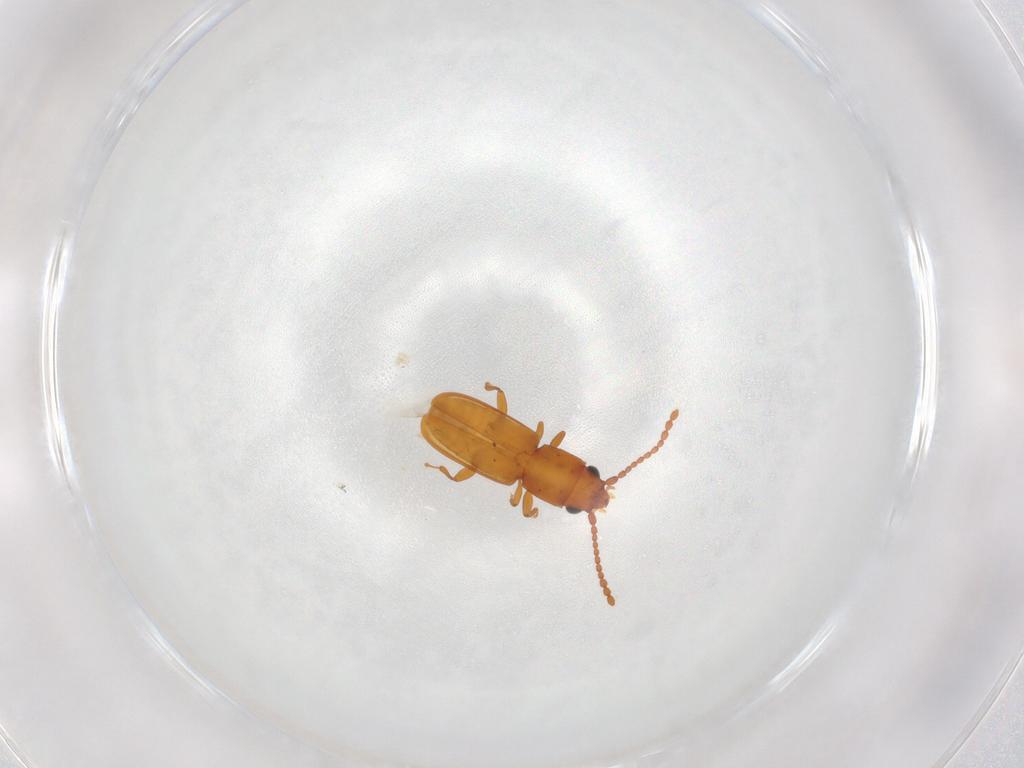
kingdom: Animalia
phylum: Arthropoda
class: Insecta
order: Coleoptera
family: Laemophloeidae
